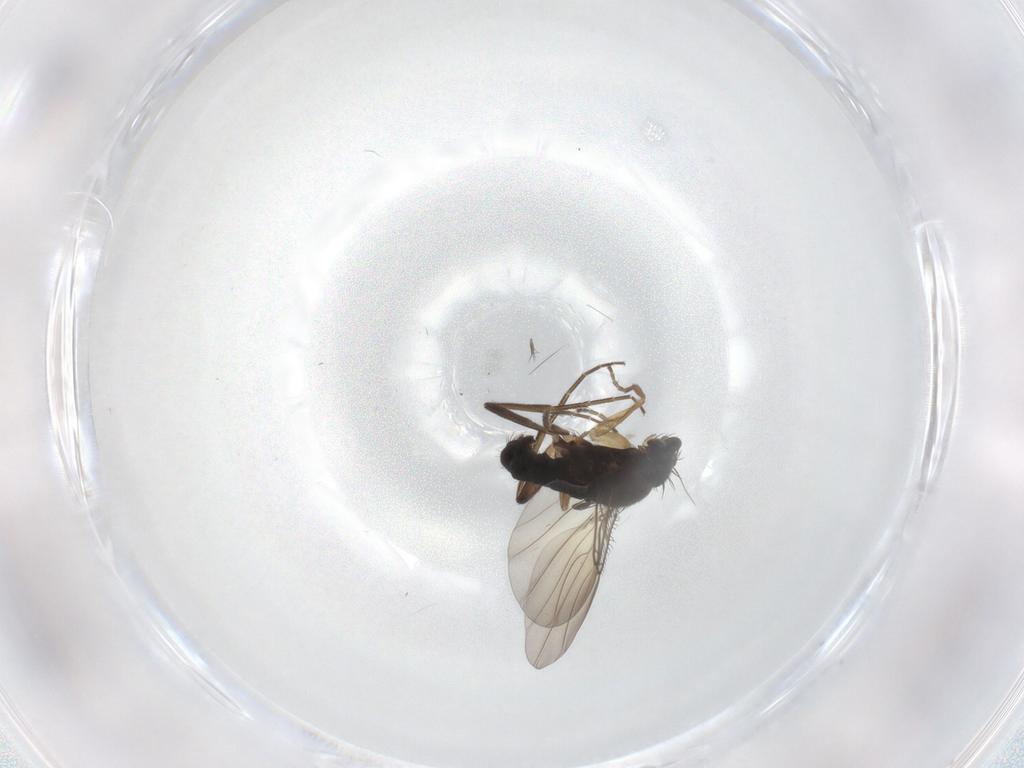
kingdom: Animalia
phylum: Arthropoda
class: Insecta
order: Diptera
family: Phoridae
